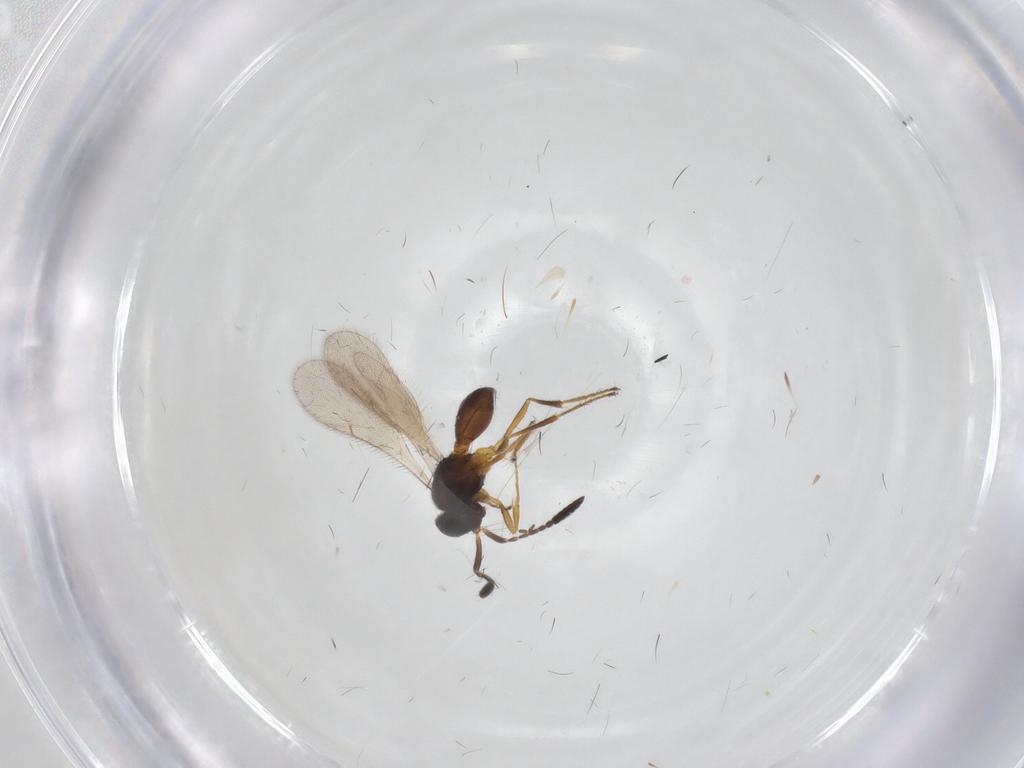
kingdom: Animalia
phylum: Arthropoda
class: Insecta
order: Hymenoptera
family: Scelionidae
